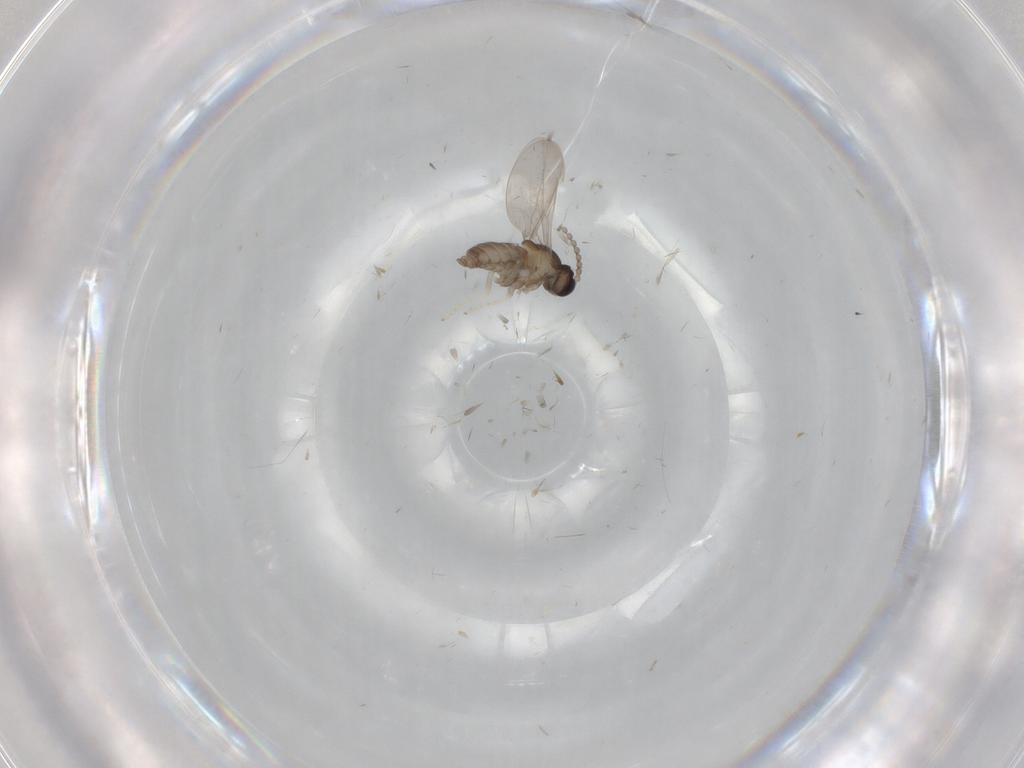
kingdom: Animalia
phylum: Arthropoda
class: Insecta
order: Diptera
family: Cecidomyiidae
